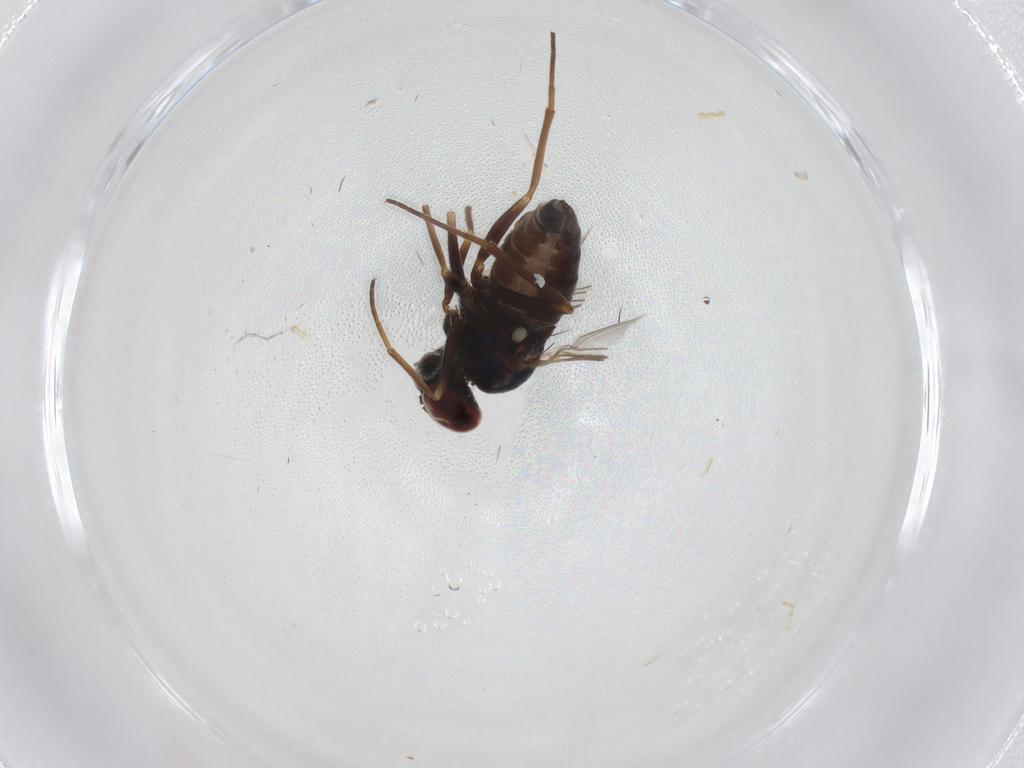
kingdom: Animalia
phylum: Arthropoda
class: Insecta
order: Diptera
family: Dolichopodidae
